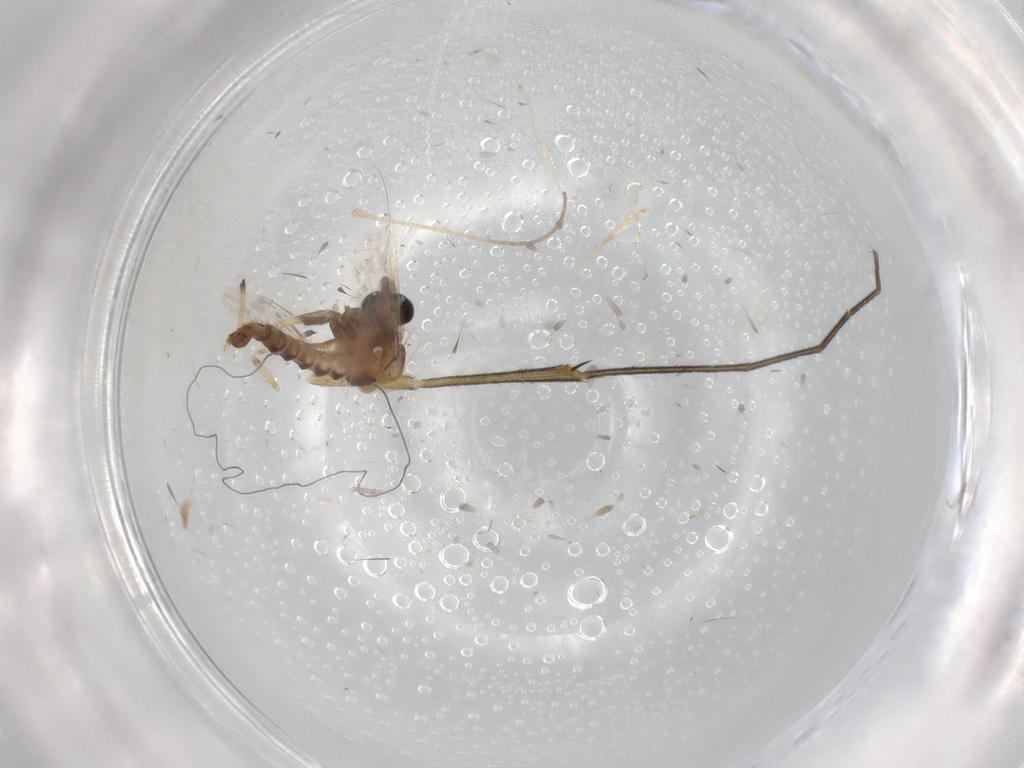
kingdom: Animalia
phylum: Arthropoda
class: Insecta
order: Diptera
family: Chironomidae
